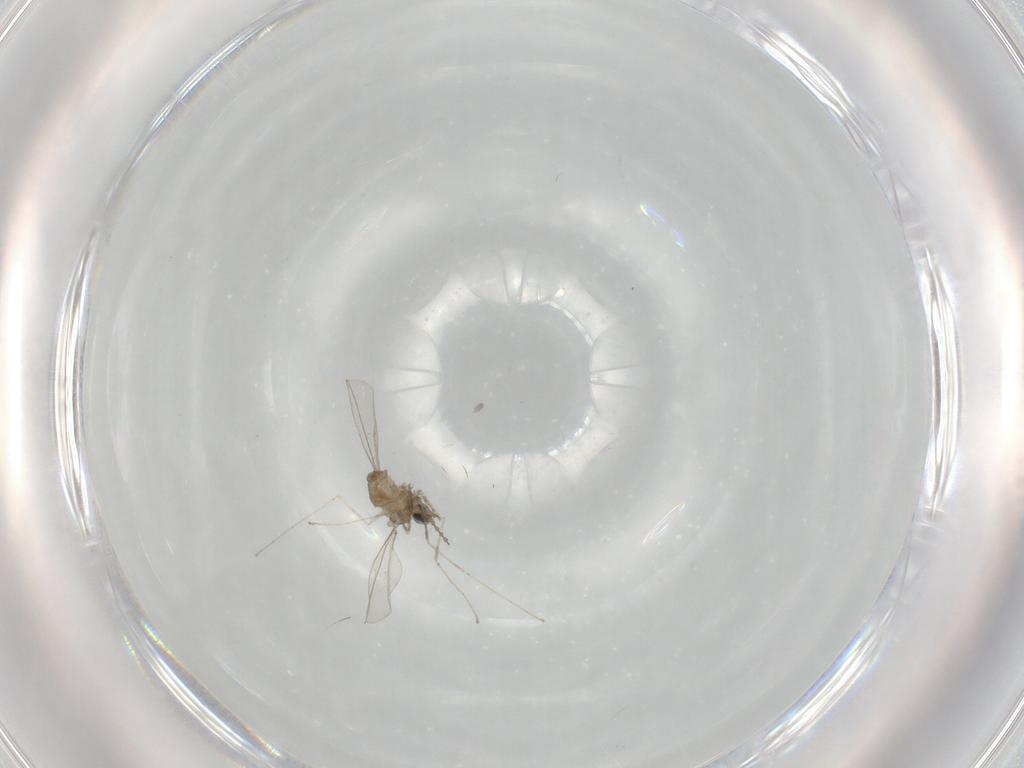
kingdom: Animalia
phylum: Arthropoda
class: Insecta
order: Diptera
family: Cecidomyiidae
